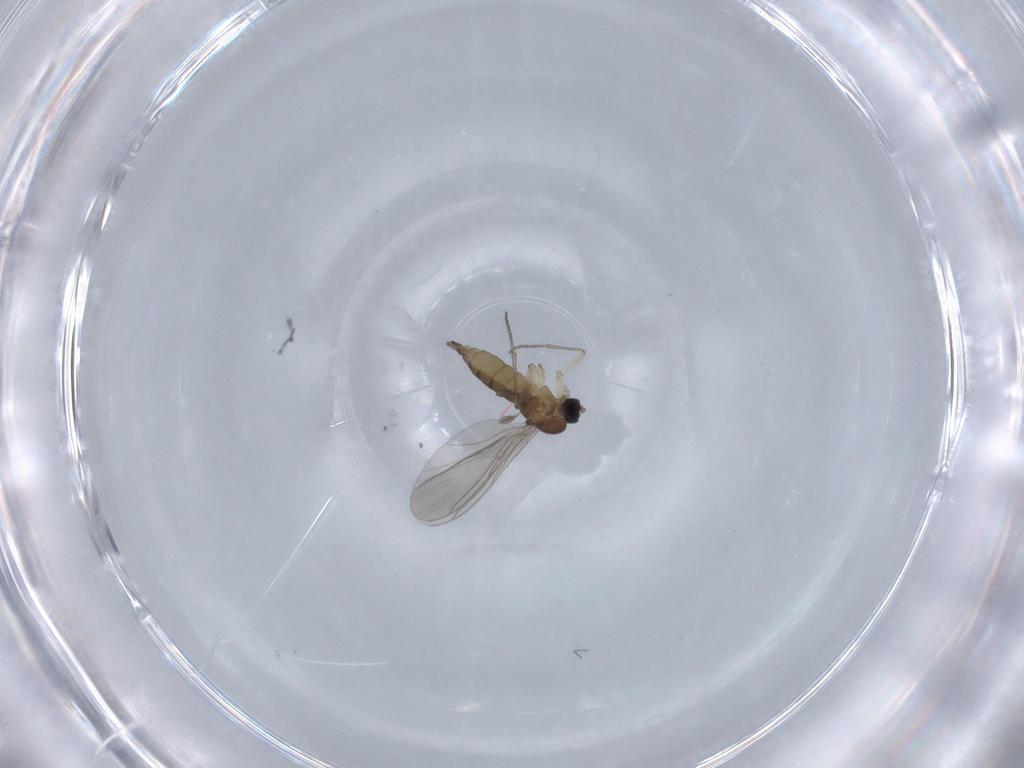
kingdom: Animalia
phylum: Arthropoda
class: Insecta
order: Diptera
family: Sciaridae
